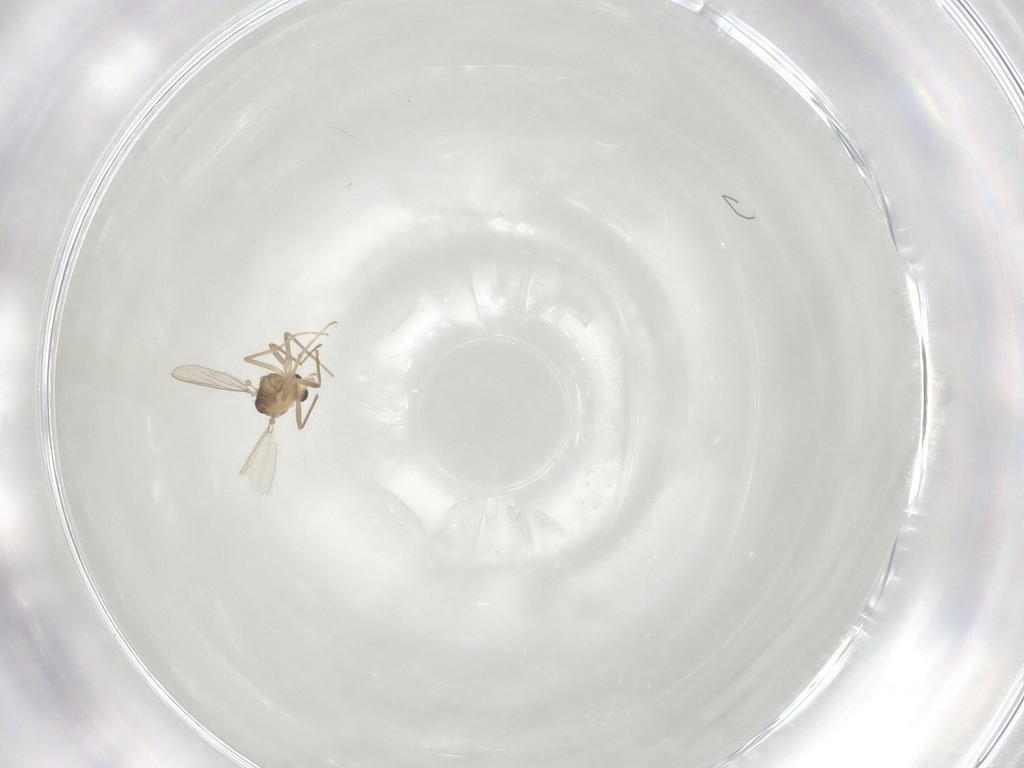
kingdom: Animalia
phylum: Arthropoda
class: Insecta
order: Diptera
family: Chironomidae
